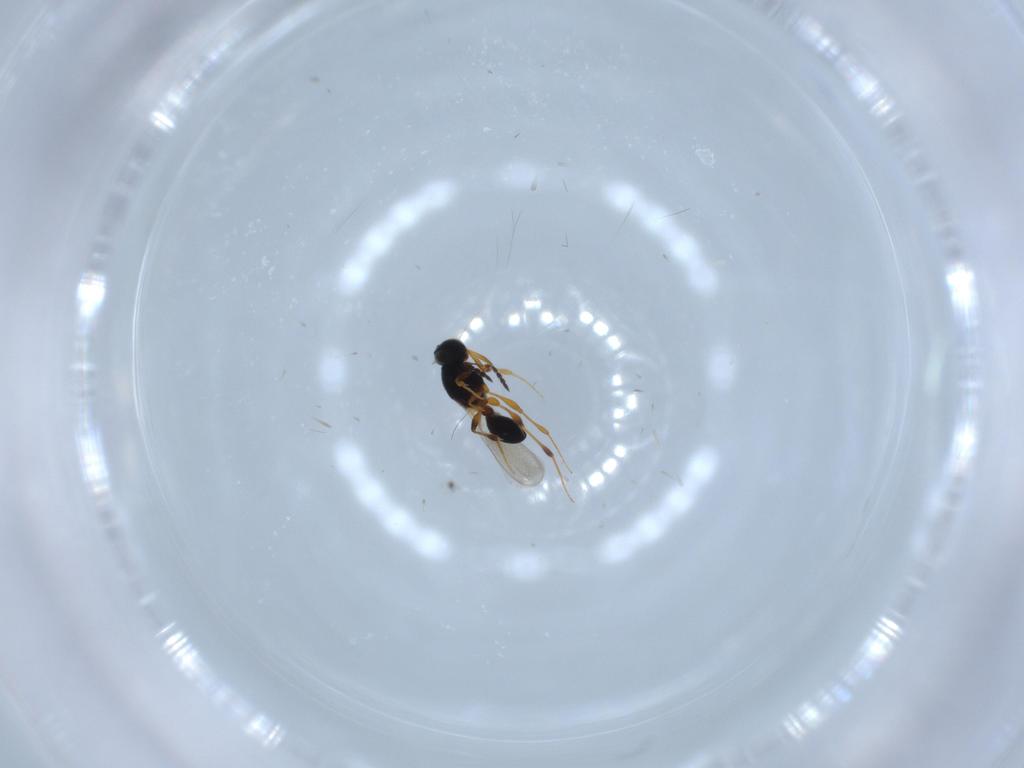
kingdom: Animalia
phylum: Arthropoda
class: Insecta
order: Hymenoptera
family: Platygastridae
